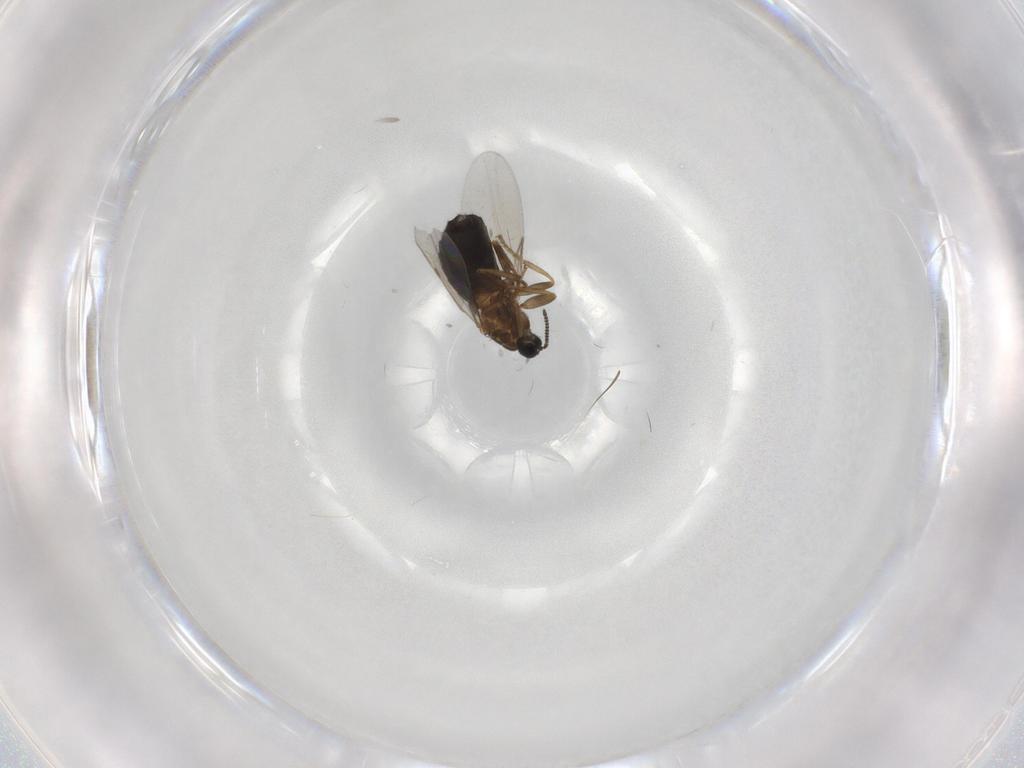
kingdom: Animalia
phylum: Arthropoda
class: Insecta
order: Diptera
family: Scatopsidae
